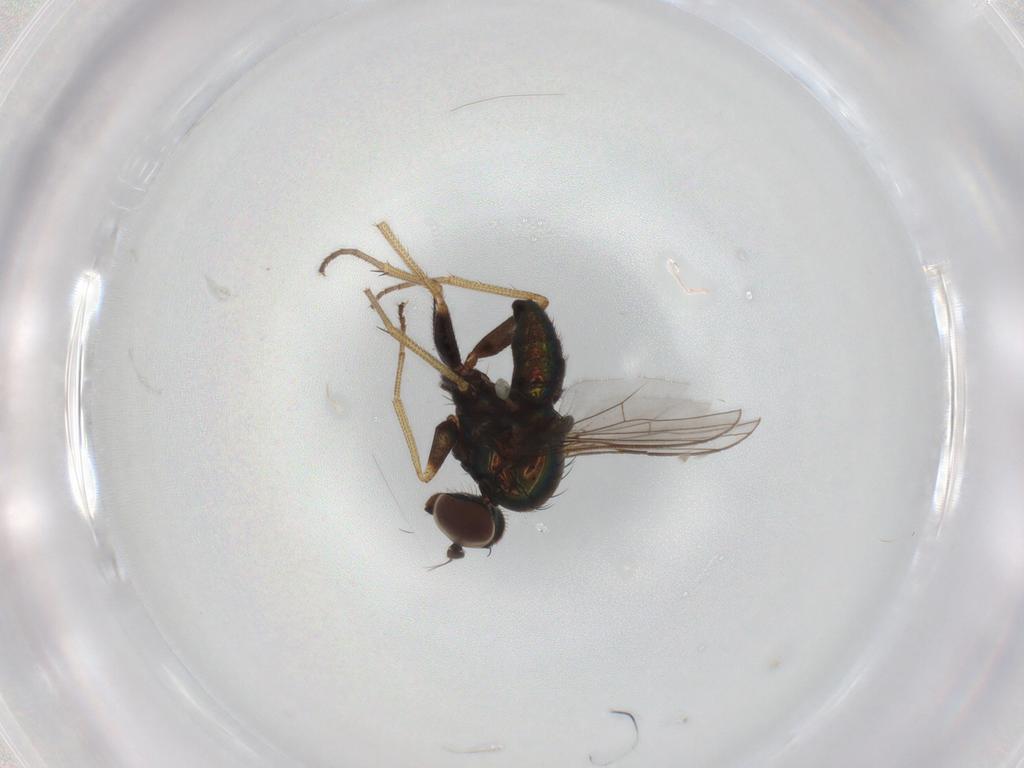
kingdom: Animalia
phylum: Arthropoda
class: Insecta
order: Diptera
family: Dolichopodidae
